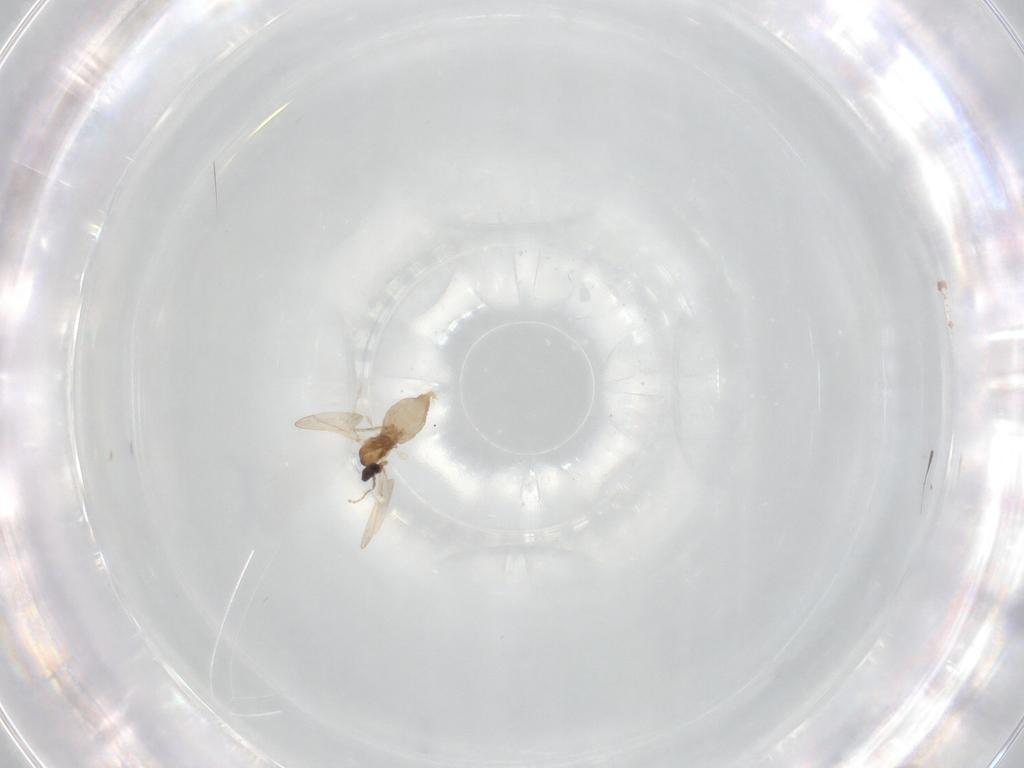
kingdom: Animalia
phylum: Arthropoda
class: Insecta
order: Diptera
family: Cecidomyiidae
